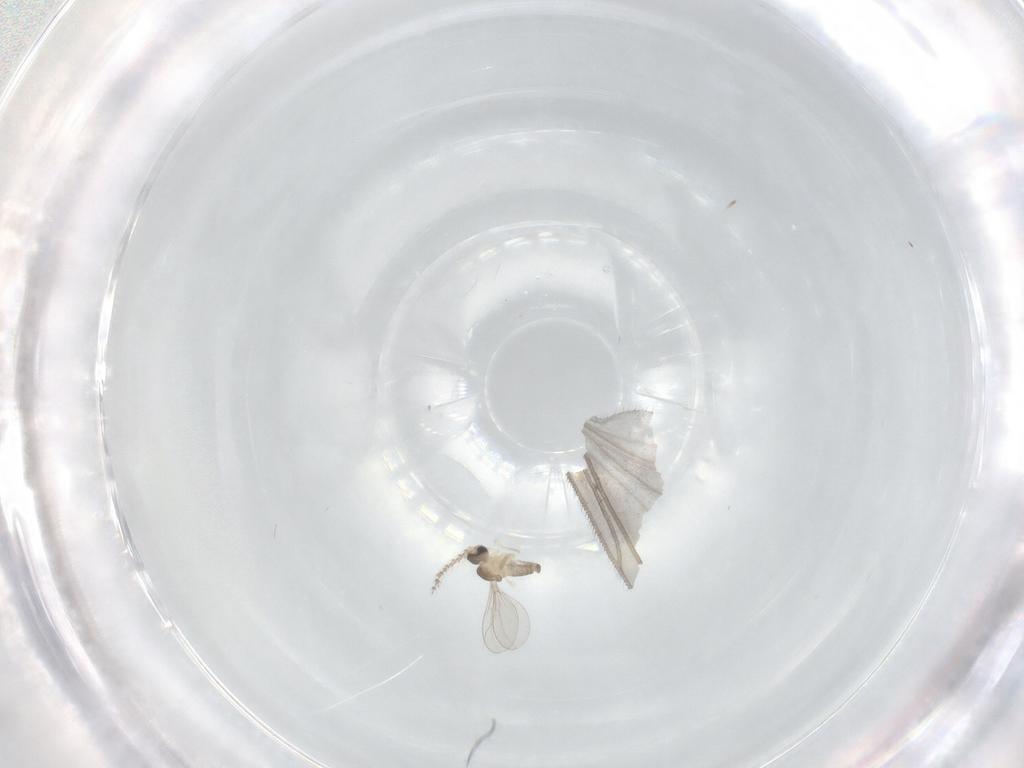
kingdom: Animalia
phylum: Arthropoda
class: Insecta
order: Diptera
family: Cecidomyiidae
